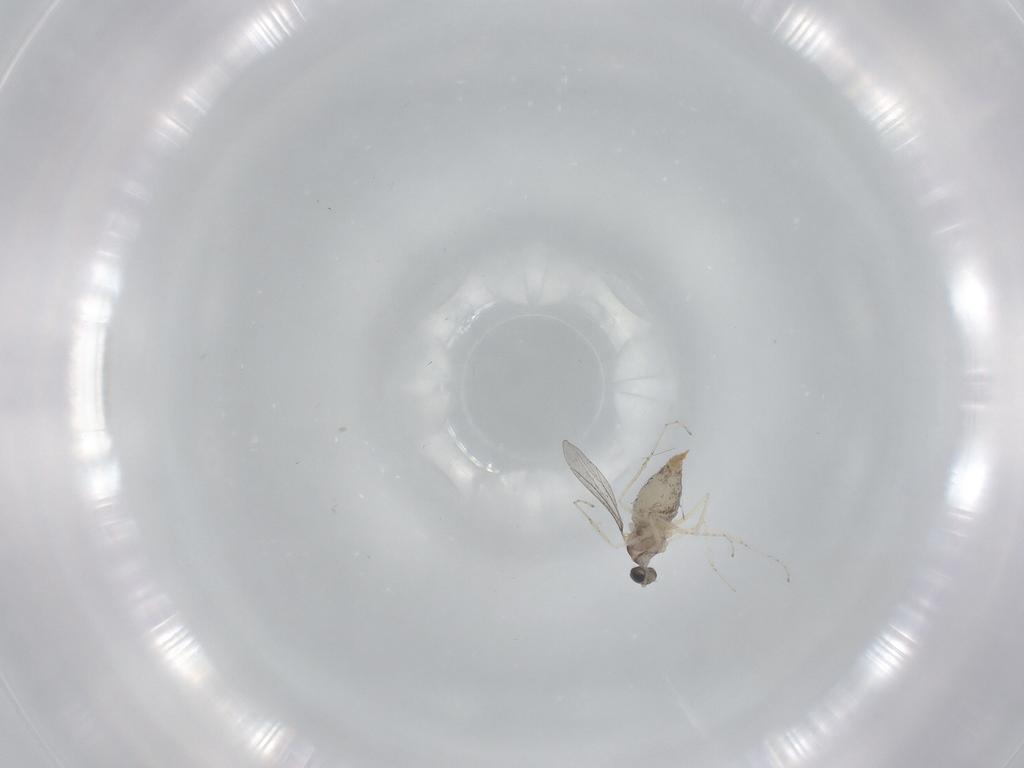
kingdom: Animalia
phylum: Arthropoda
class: Insecta
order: Diptera
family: Cecidomyiidae
